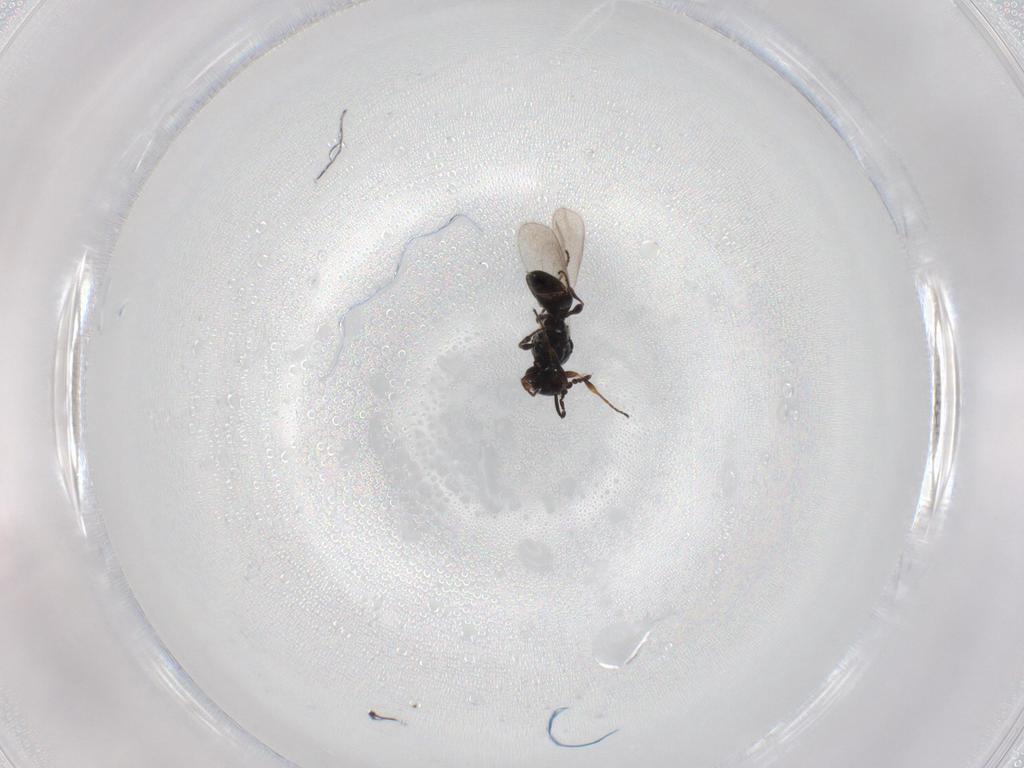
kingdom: Animalia
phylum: Arthropoda
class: Insecta
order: Hymenoptera
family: Platygastridae
